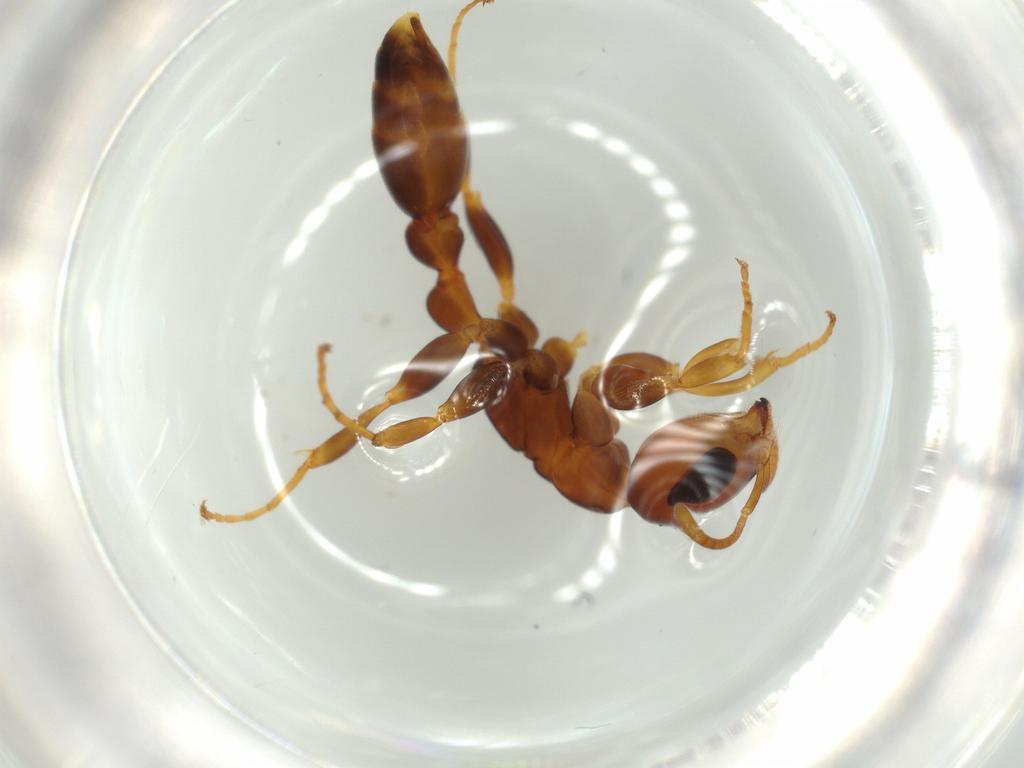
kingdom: Animalia
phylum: Arthropoda
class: Insecta
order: Hymenoptera
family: Formicidae
